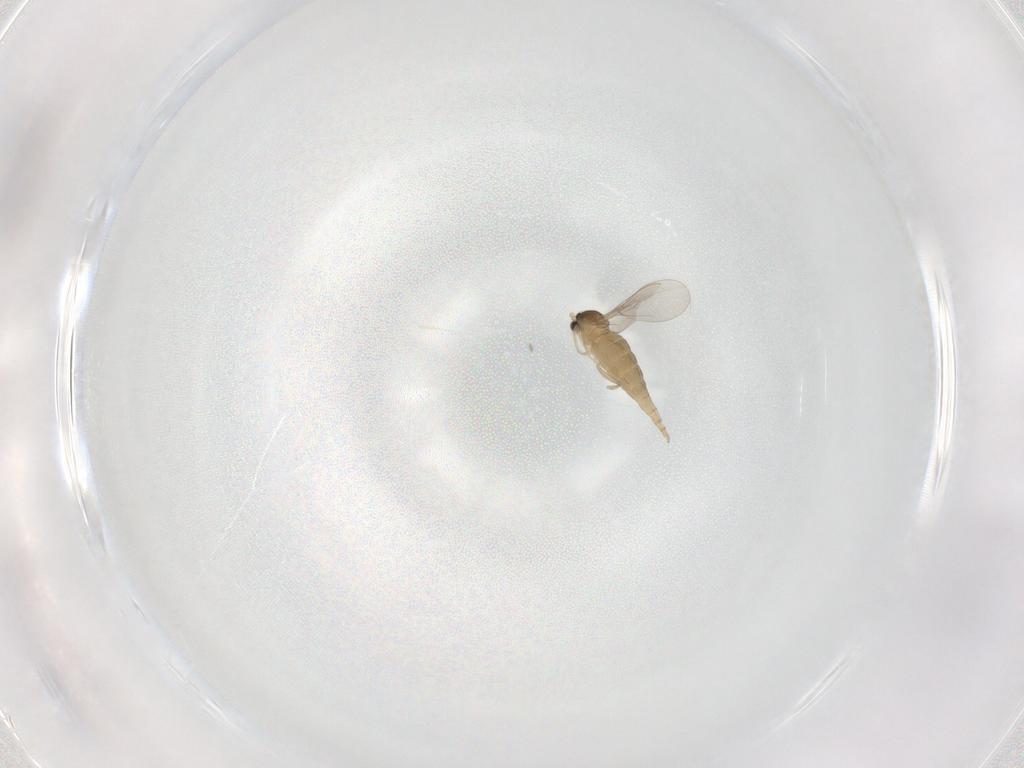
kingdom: Animalia
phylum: Arthropoda
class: Insecta
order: Diptera
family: Cecidomyiidae
